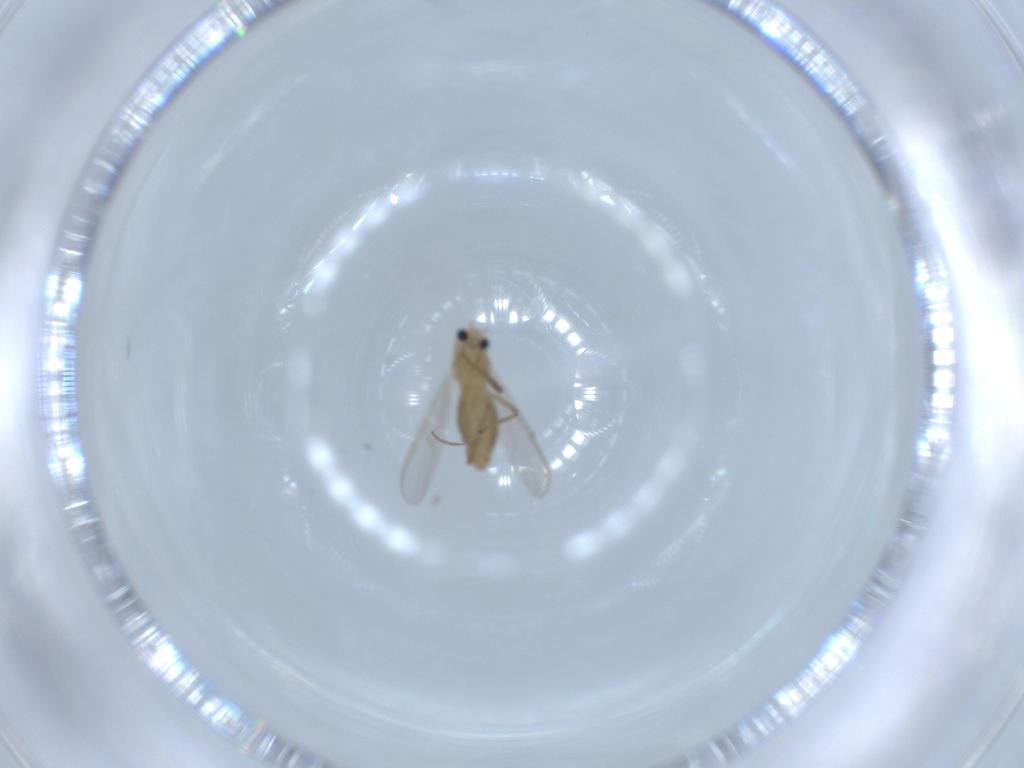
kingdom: Animalia
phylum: Arthropoda
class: Insecta
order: Diptera
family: Chironomidae
